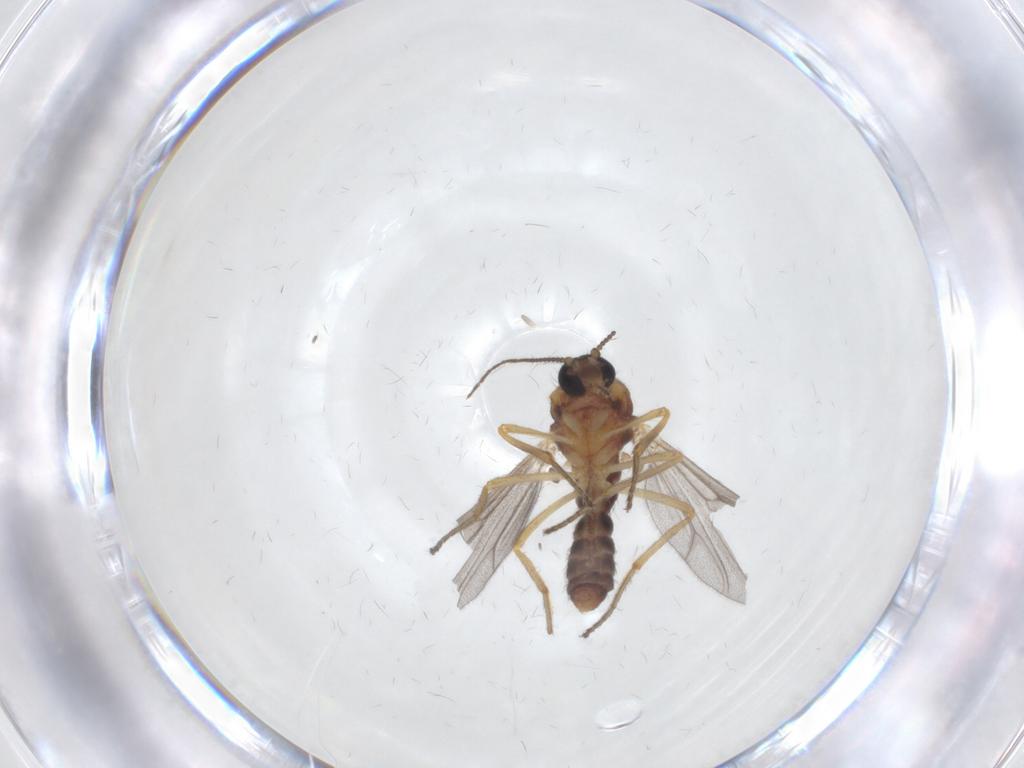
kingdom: Animalia
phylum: Arthropoda
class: Insecta
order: Diptera
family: Ceratopogonidae
